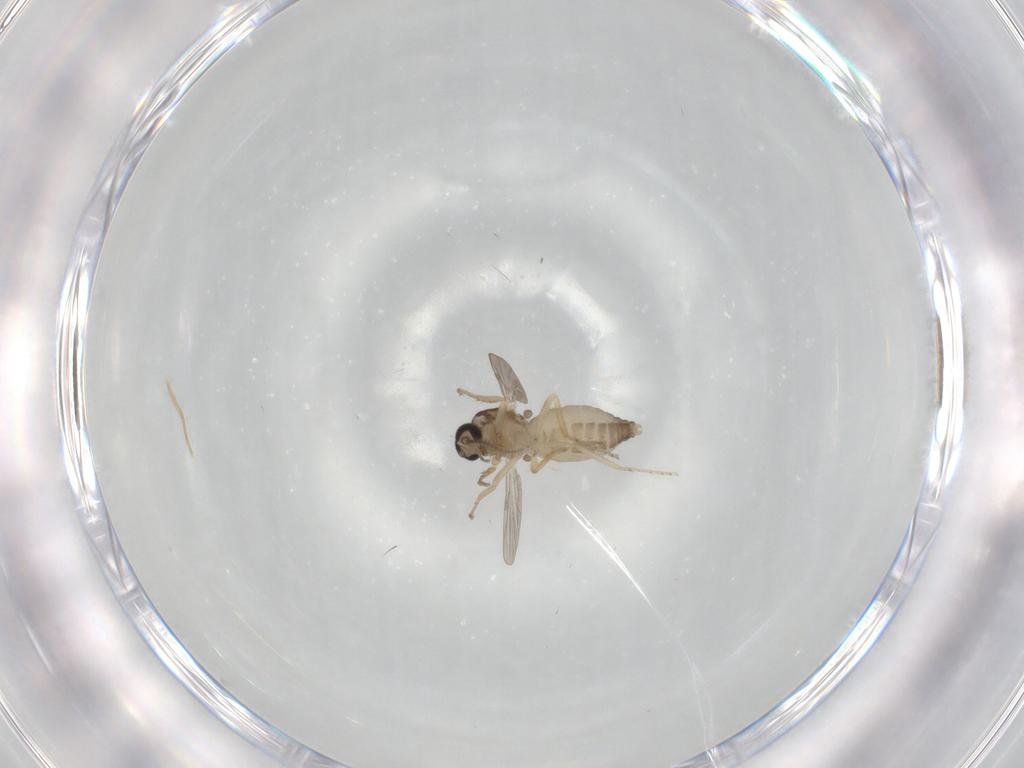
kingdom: Animalia
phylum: Arthropoda
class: Insecta
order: Diptera
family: Ceratopogonidae
